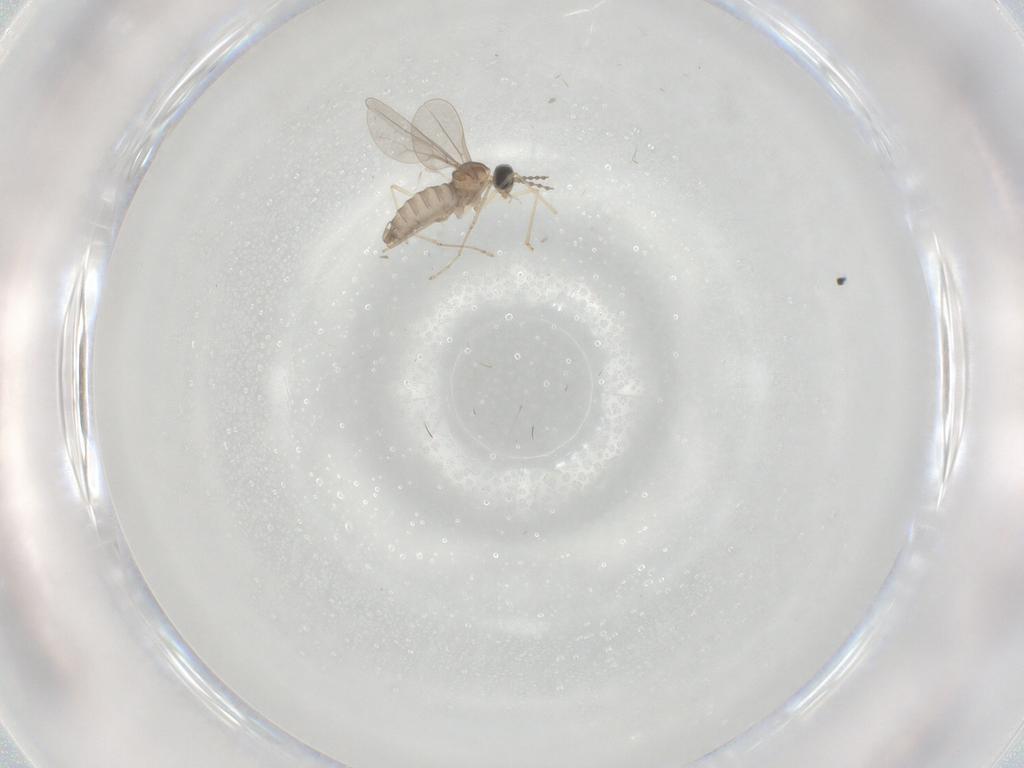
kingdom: Animalia
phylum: Arthropoda
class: Insecta
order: Diptera
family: Cecidomyiidae
